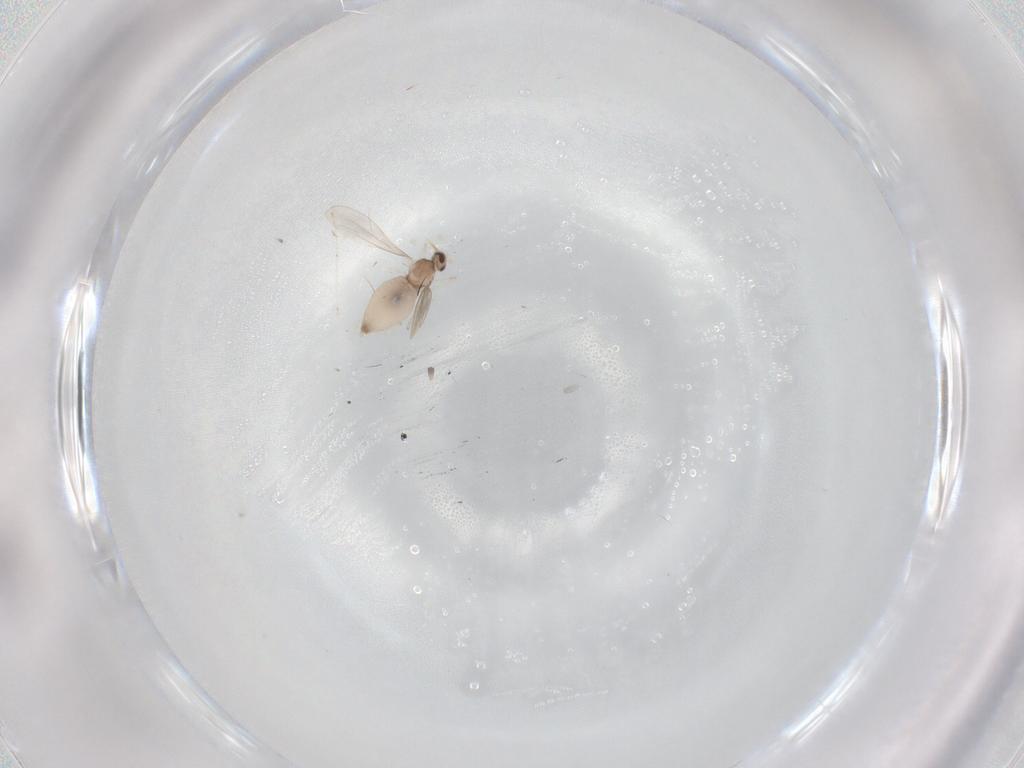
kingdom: Animalia
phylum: Arthropoda
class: Insecta
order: Diptera
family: Cecidomyiidae
